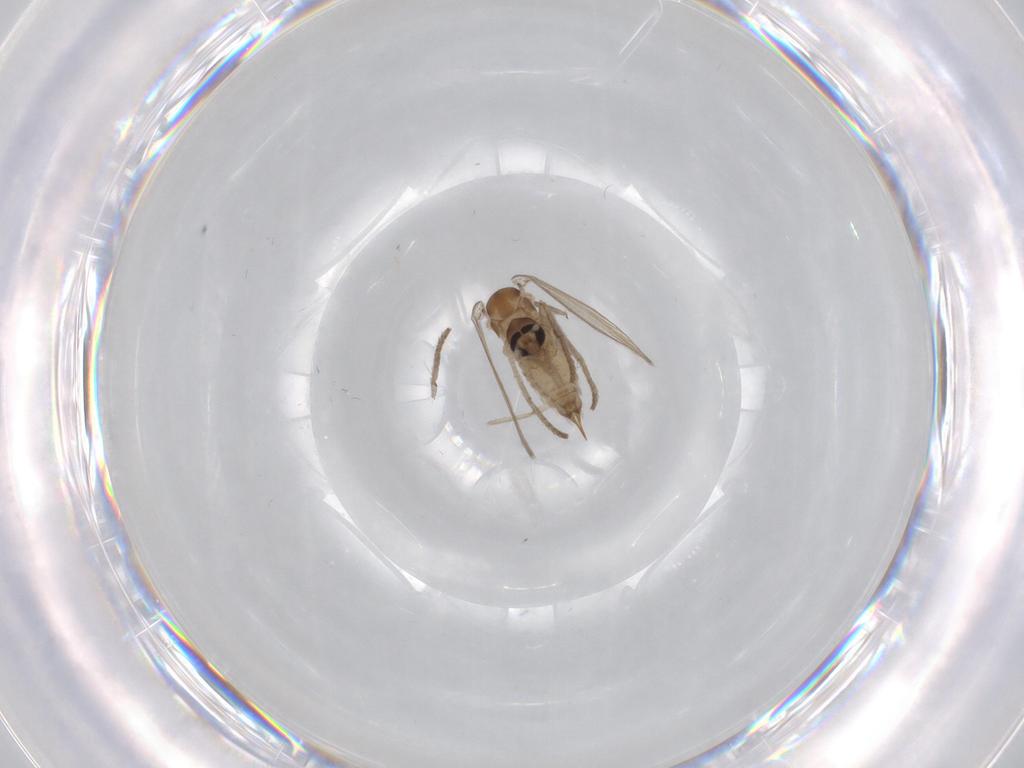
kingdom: Animalia
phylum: Arthropoda
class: Insecta
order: Diptera
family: Psychodidae
